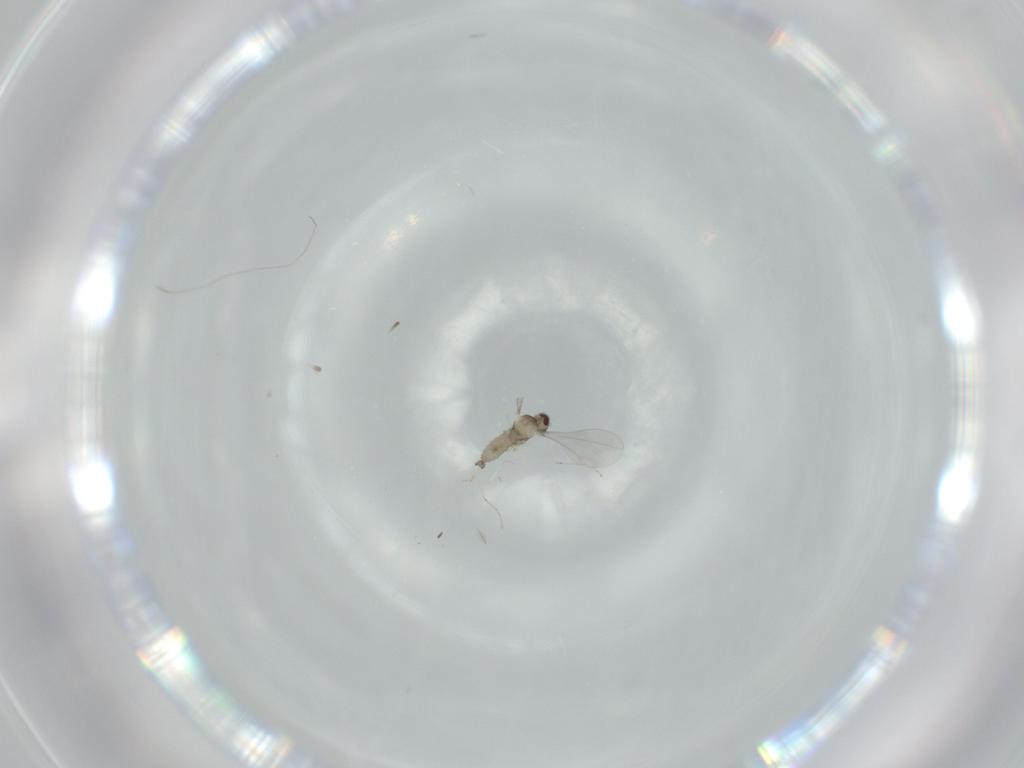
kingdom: Animalia
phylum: Arthropoda
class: Insecta
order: Diptera
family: Cecidomyiidae
